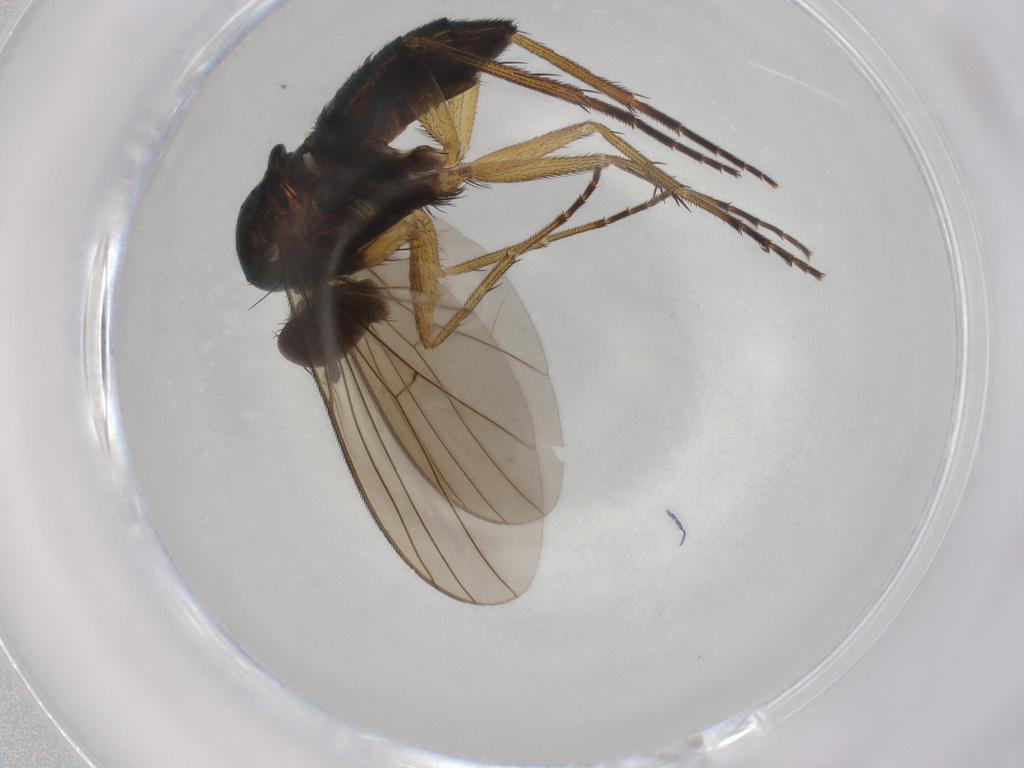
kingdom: Animalia
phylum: Arthropoda
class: Insecta
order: Diptera
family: Dolichopodidae
